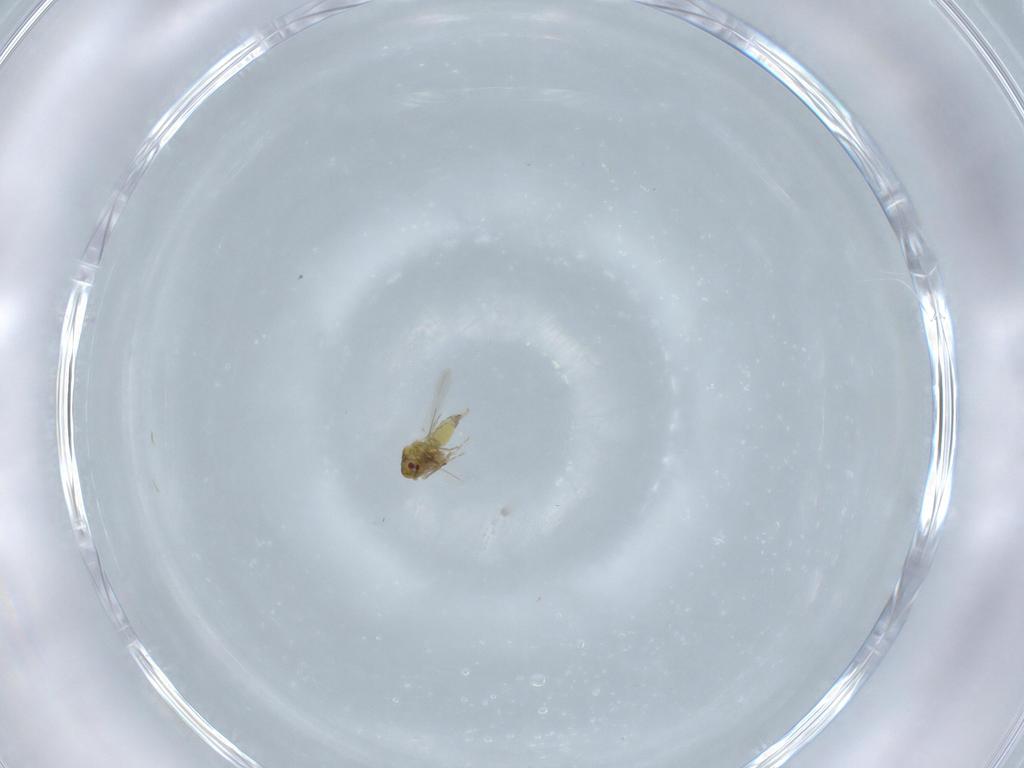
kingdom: Animalia
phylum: Arthropoda
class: Insecta
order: Hemiptera
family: Aleyrodidae
